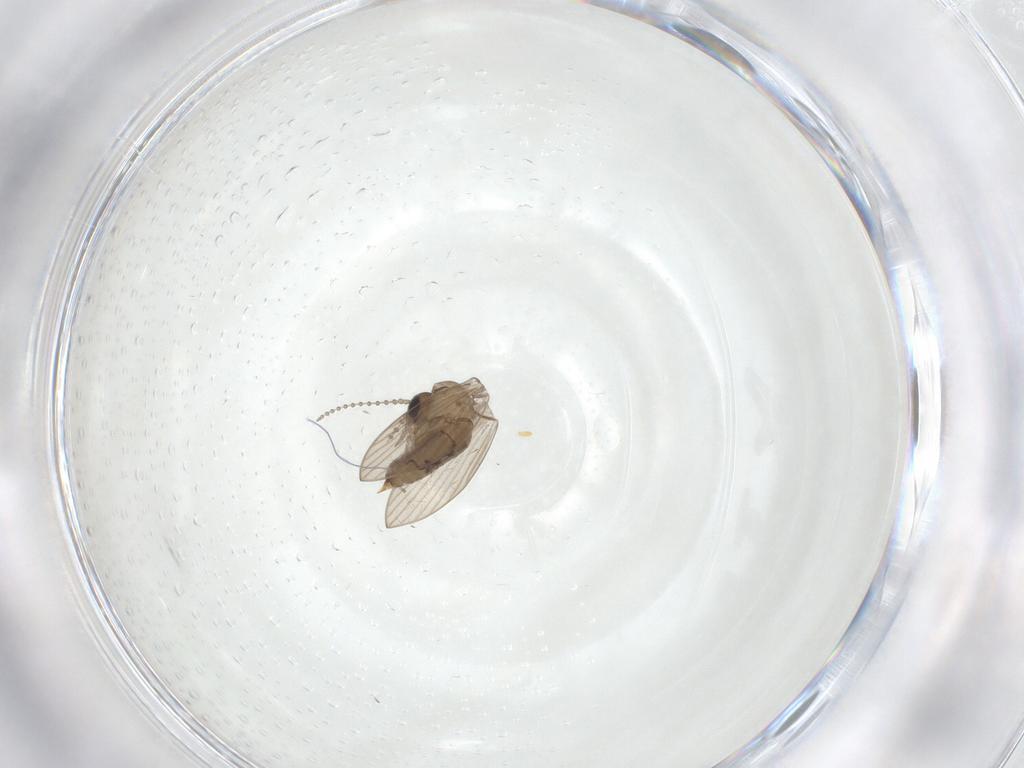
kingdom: Animalia
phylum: Arthropoda
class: Insecta
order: Diptera
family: Psychodidae
